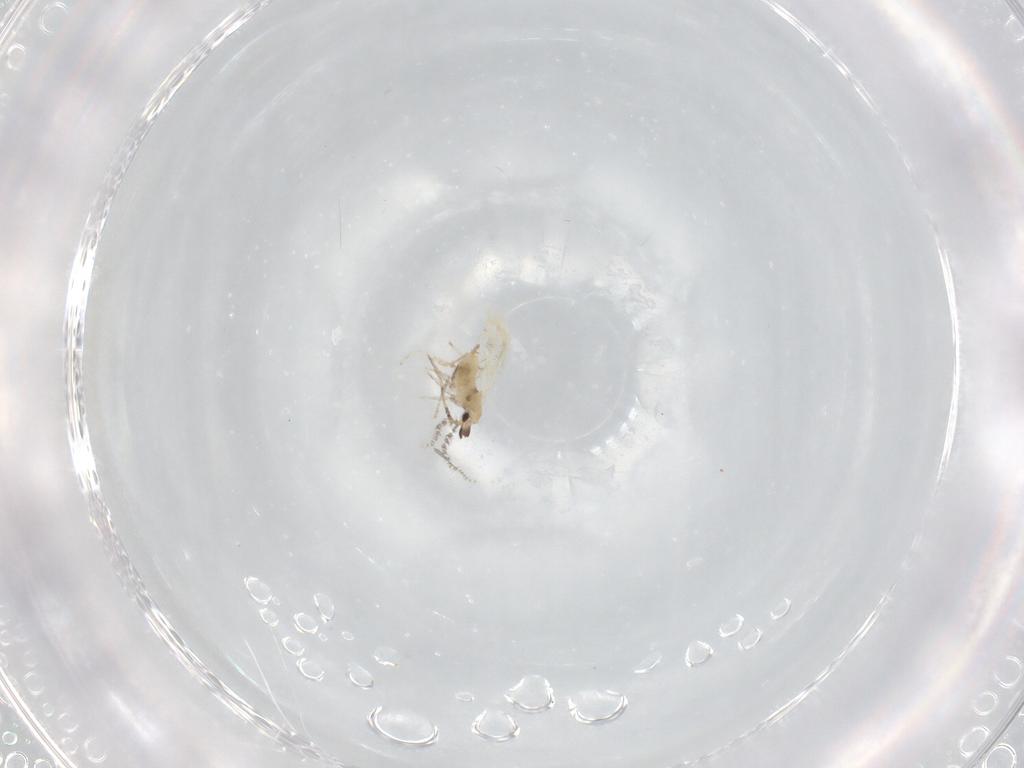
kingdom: Animalia
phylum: Arthropoda
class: Insecta
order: Diptera
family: Cecidomyiidae
